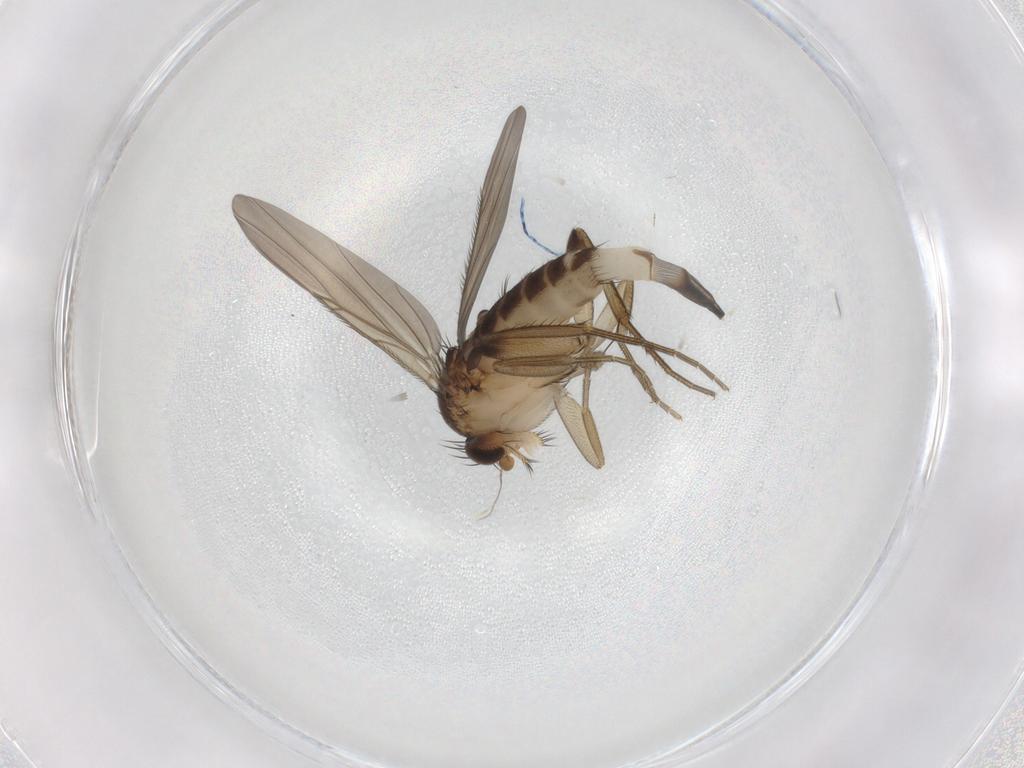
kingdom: Animalia
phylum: Arthropoda
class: Insecta
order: Diptera
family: Phoridae
